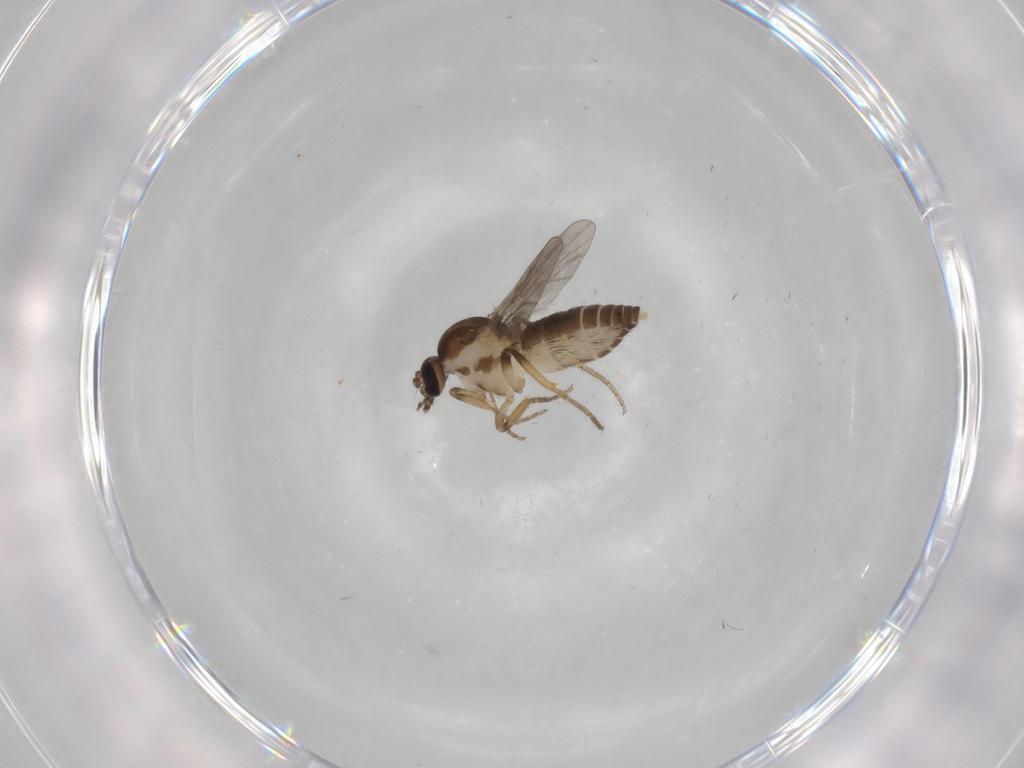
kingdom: Animalia
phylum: Arthropoda
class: Insecta
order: Diptera
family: Ceratopogonidae
